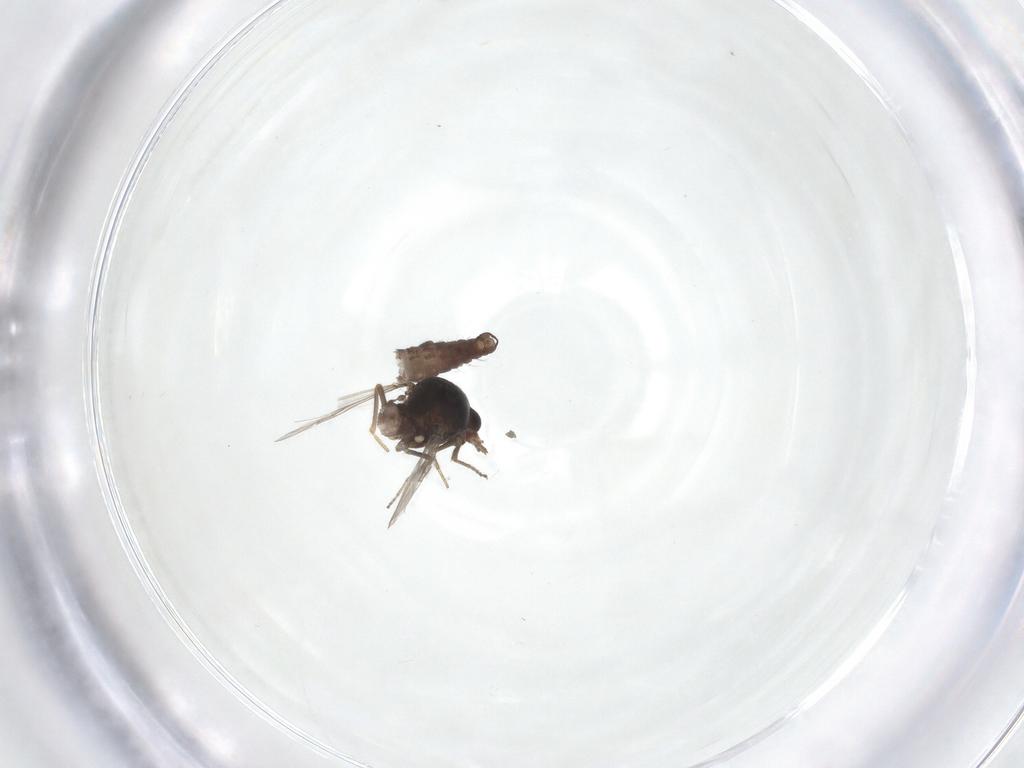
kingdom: Animalia
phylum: Arthropoda
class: Insecta
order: Diptera
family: Ceratopogonidae
